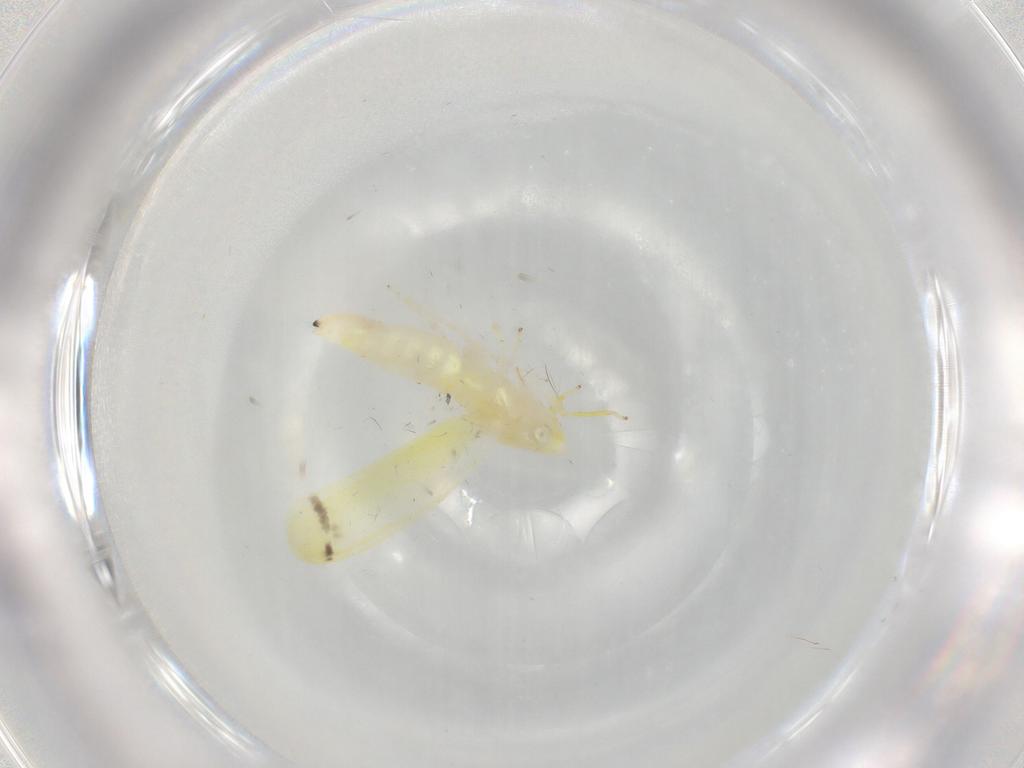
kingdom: Animalia
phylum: Arthropoda
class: Insecta
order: Hemiptera
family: Cicadellidae
